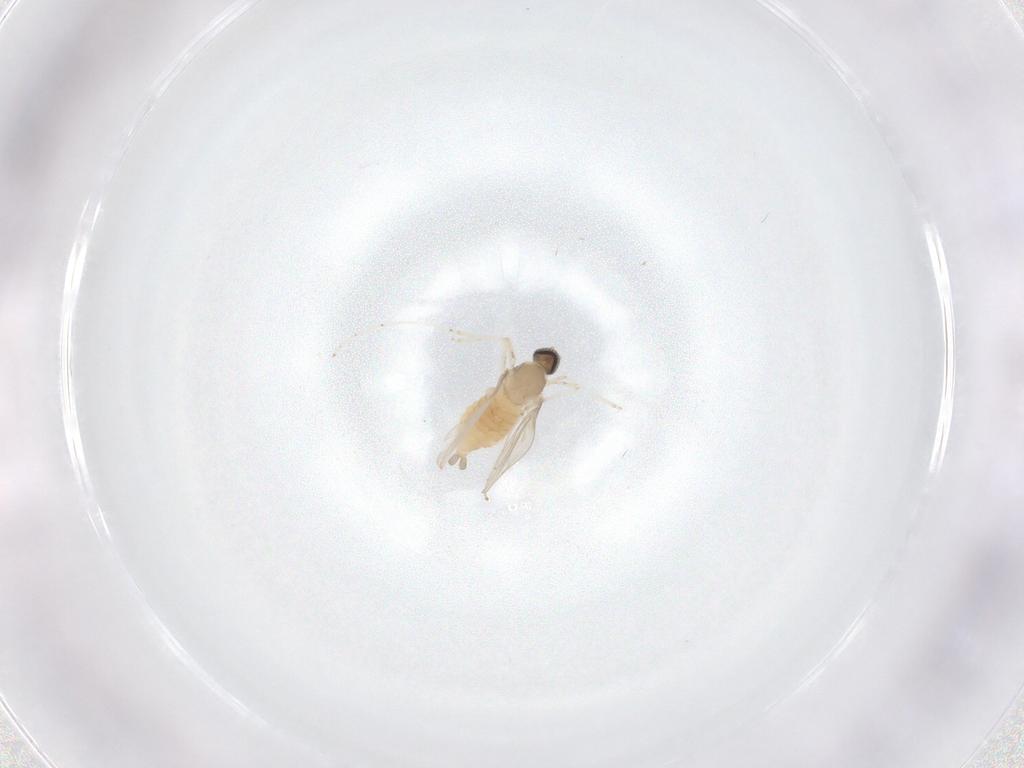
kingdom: Animalia
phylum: Arthropoda
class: Insecta
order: Diptera
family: Cecidomyiidae
